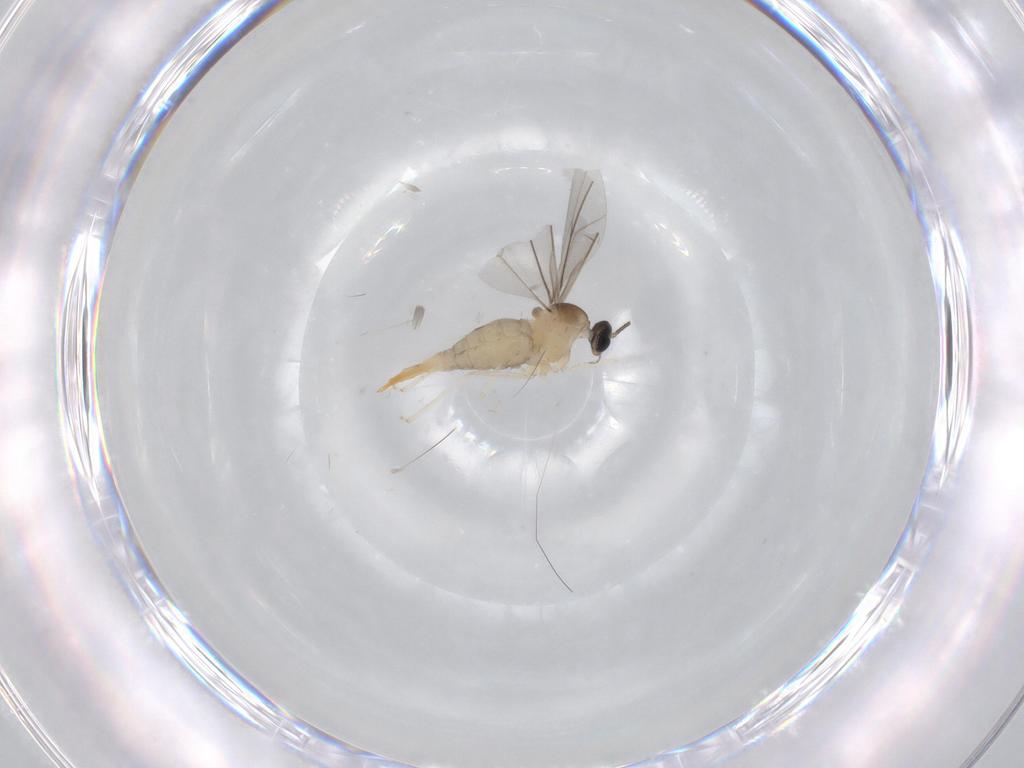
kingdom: Animalia
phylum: Arthropoda
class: Insecta
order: Diptera
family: Cecidomyiidae
